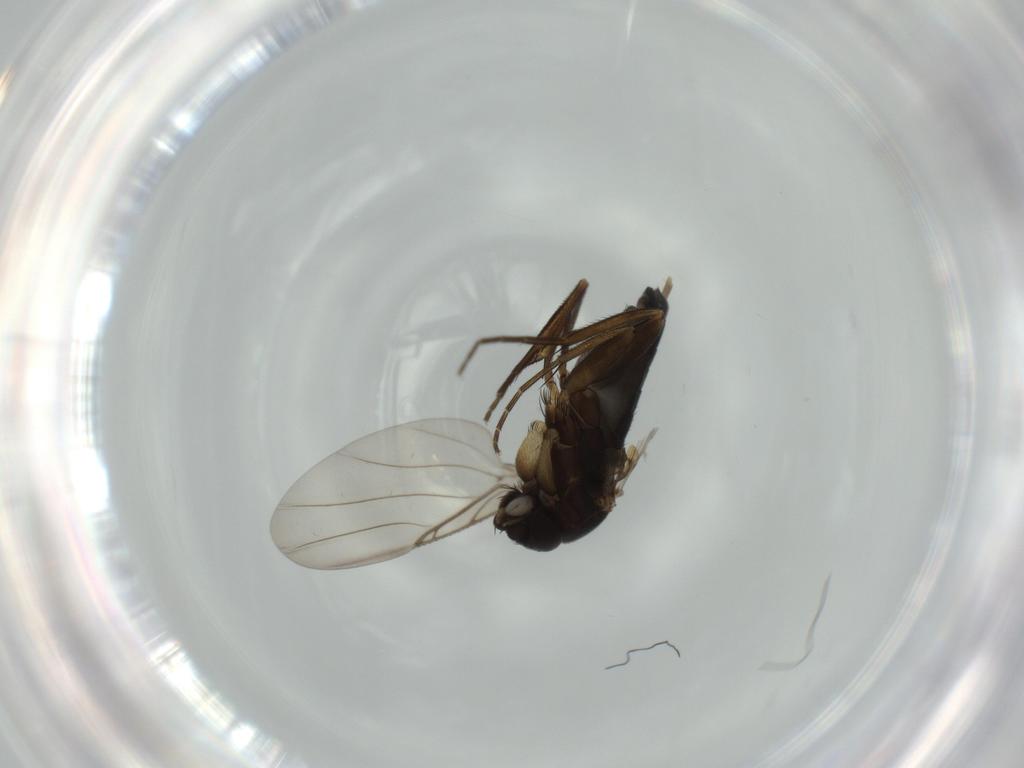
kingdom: Animalia
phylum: Arthropoda
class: Insecta
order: Diptera
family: Phoridae
